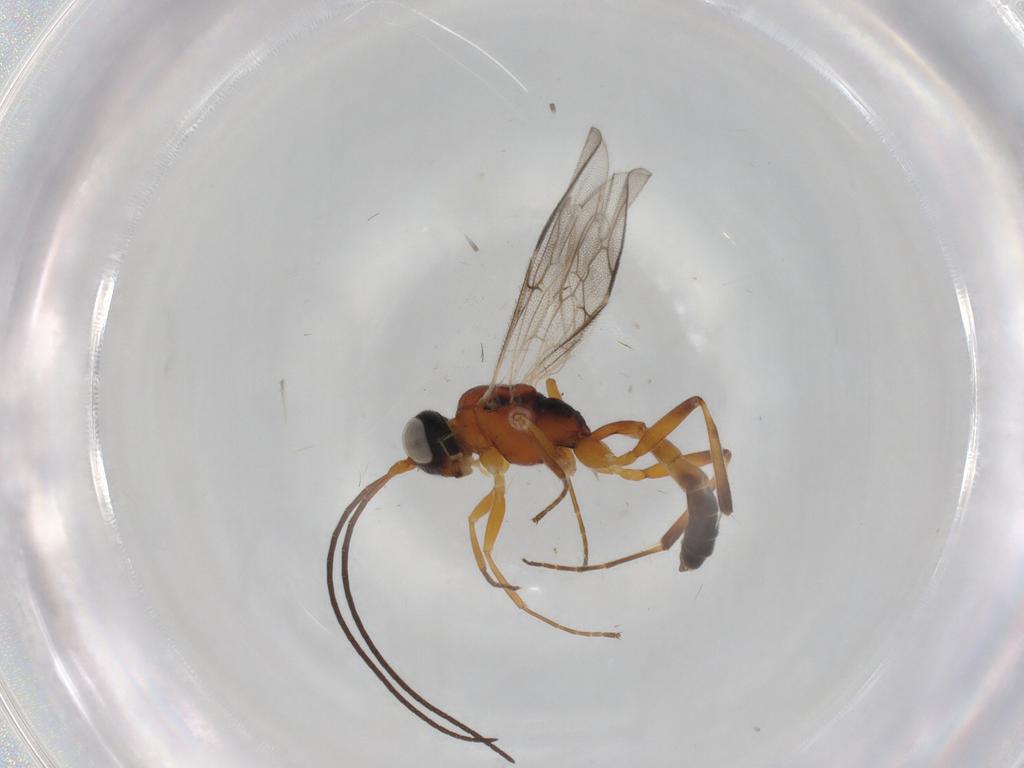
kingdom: Animalia
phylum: Arthropoda
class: Insecta
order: Hymenoptera
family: Ichneumonidae
